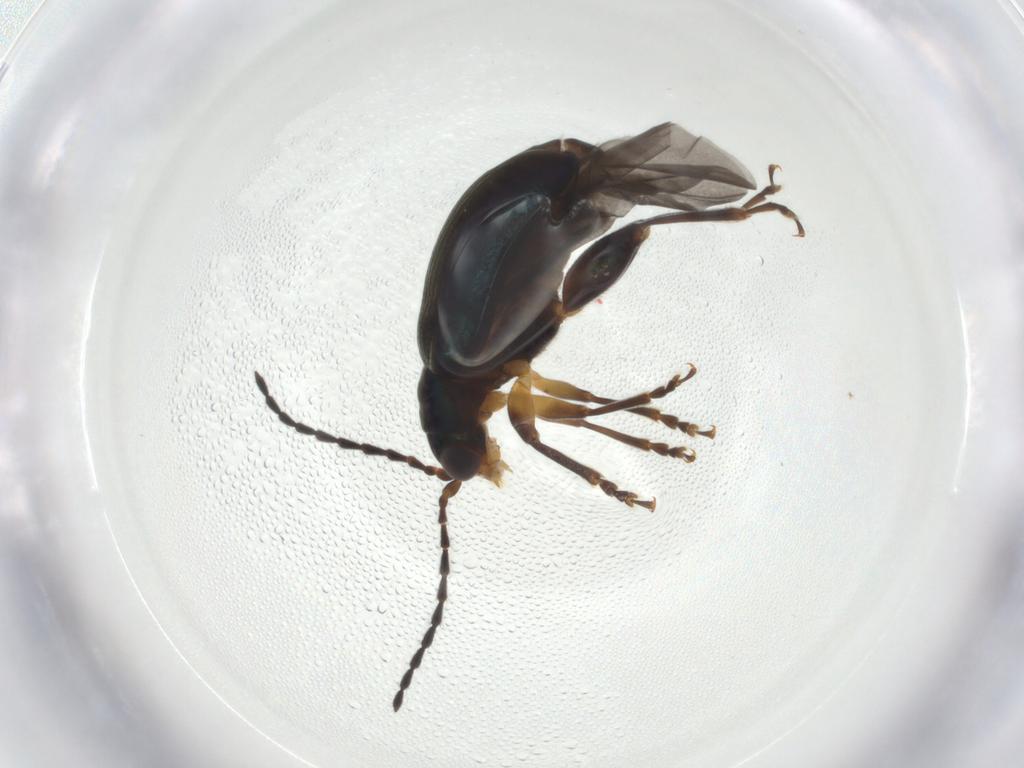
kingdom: Animalia
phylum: Arthropoda
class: Insecta
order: Coleoptera
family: Chrysomelidae
